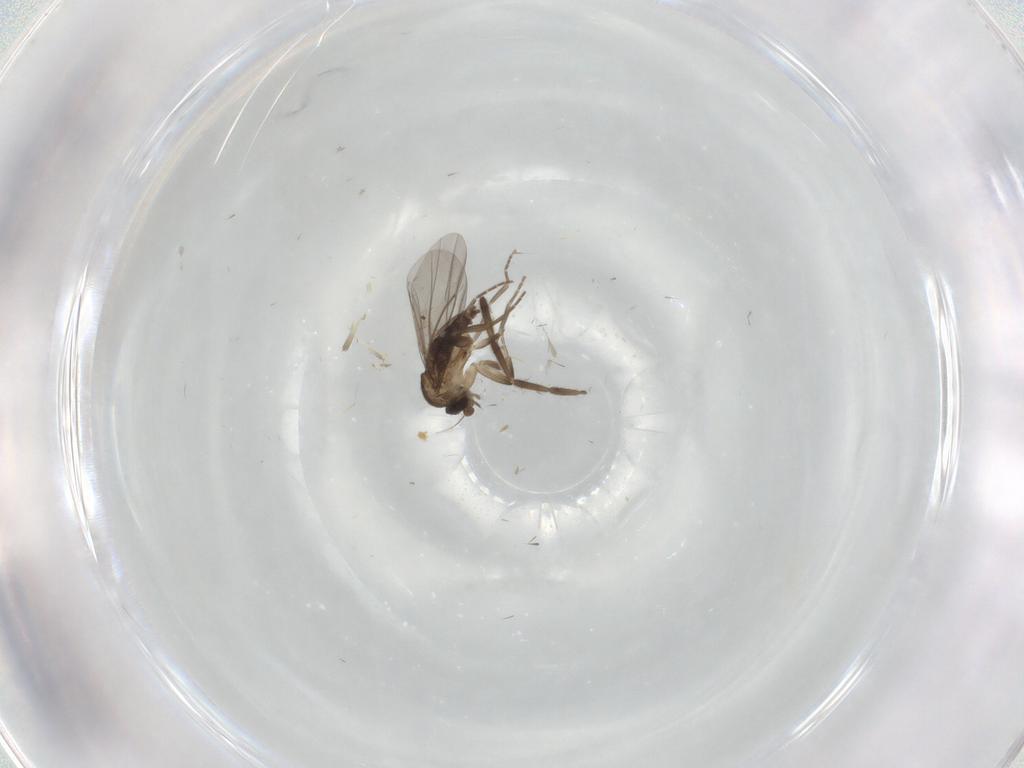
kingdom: Animalia
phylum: Arthropoda
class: Insecta
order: Diptera
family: Phoridae
